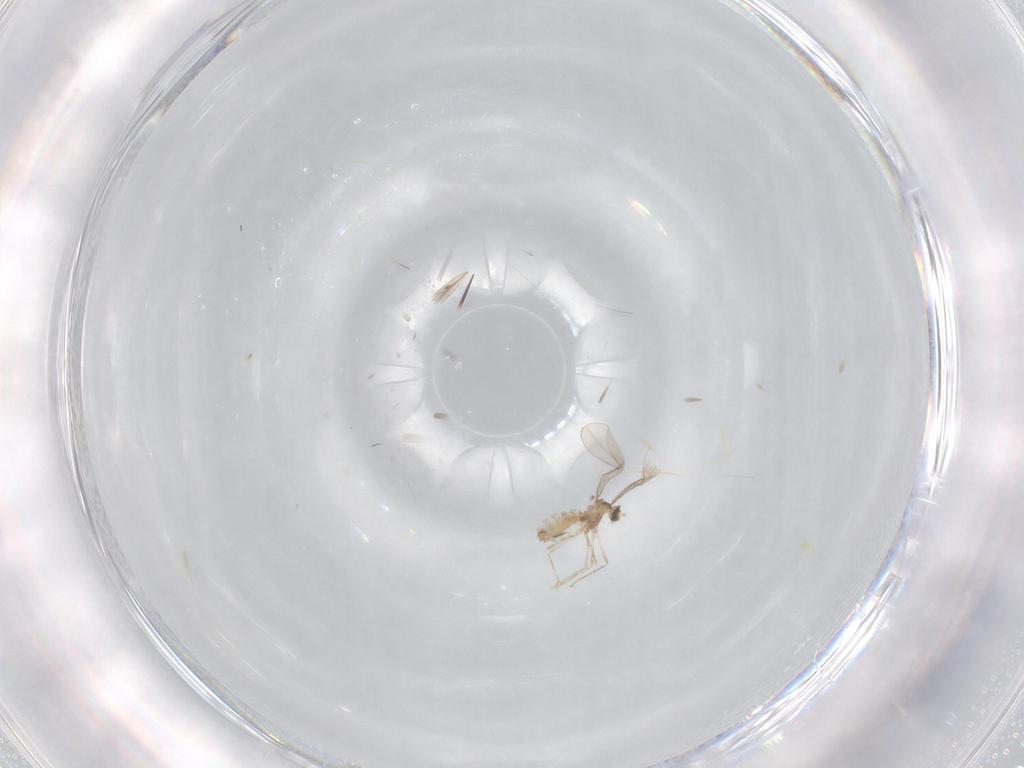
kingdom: Animalia
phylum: Arthropoda
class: Insecta
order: Diptera
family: Cecidomyiidae
